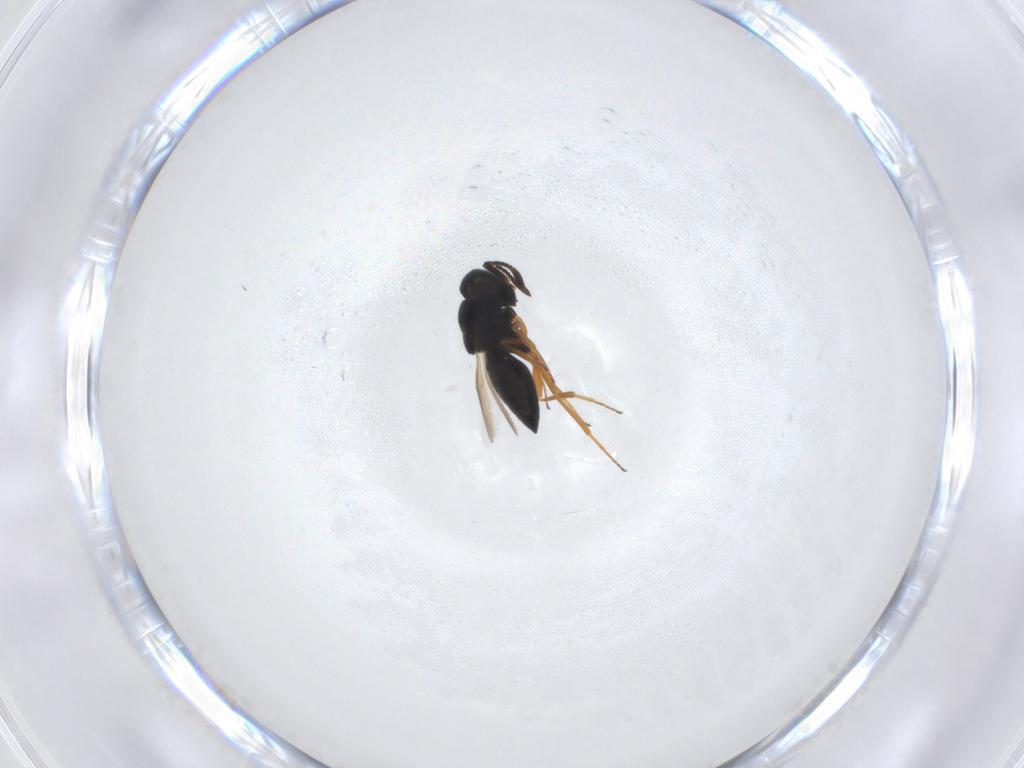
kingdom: Animalia
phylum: Arthropoda
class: Insecta
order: Hymenoptera
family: Scelionidae
